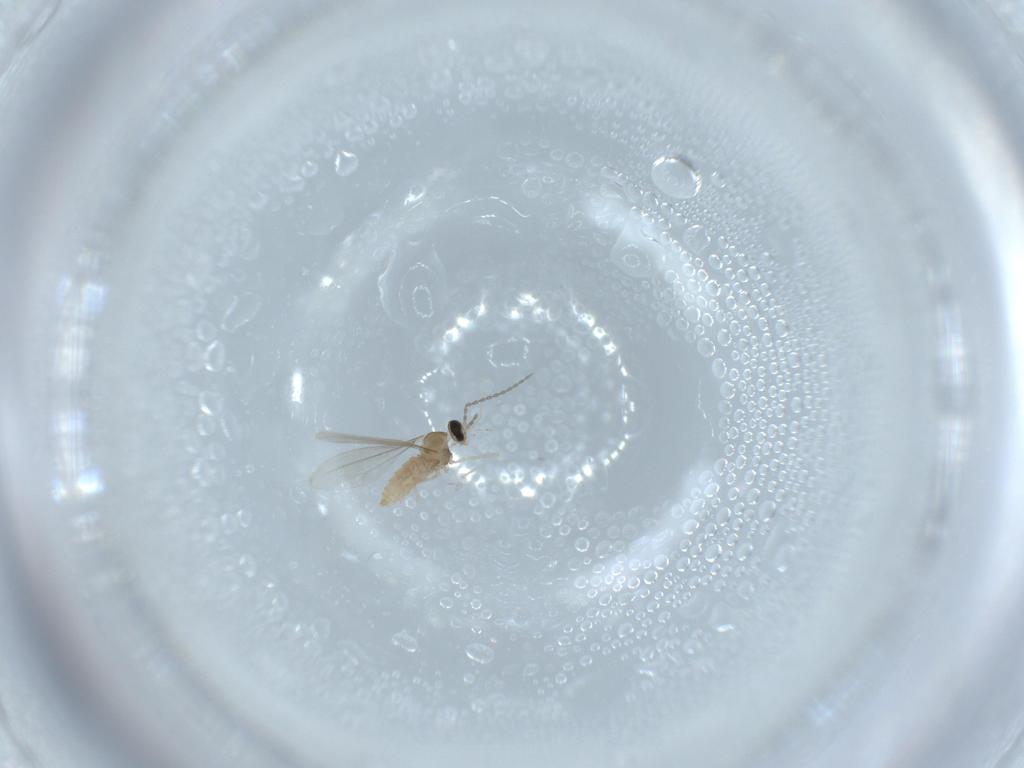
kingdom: Animalia
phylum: Arthropoda
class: Insecta
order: Diptera
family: Cecidomyiidae
